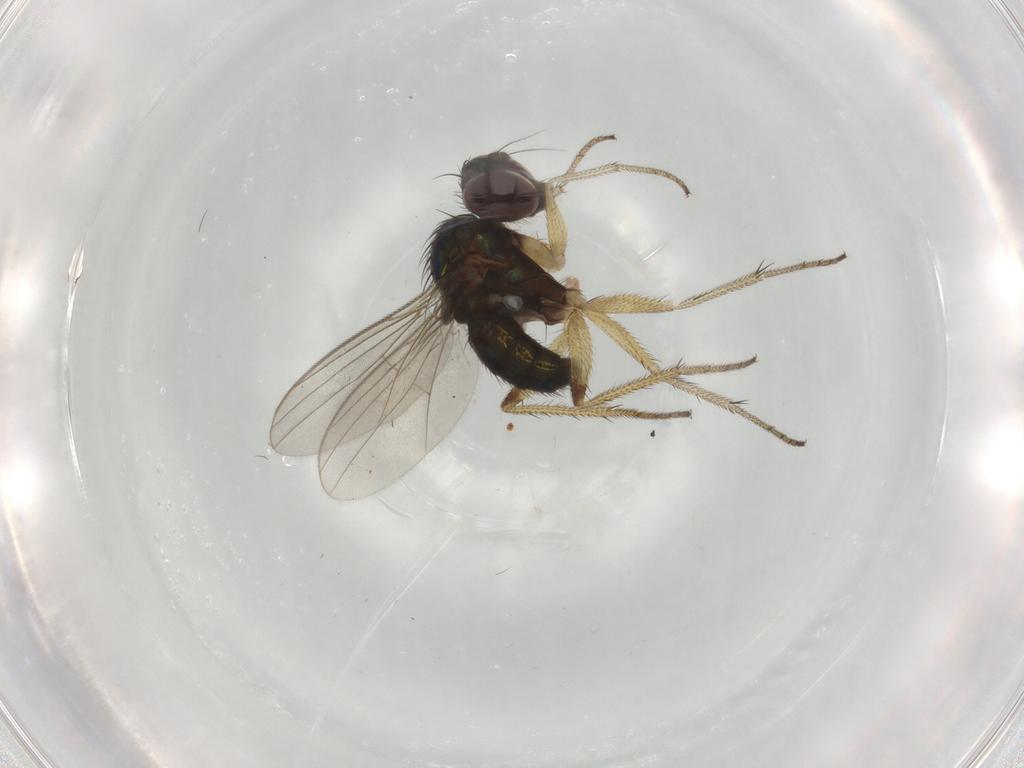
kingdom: Animalia
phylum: Arthropoda
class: Insecta
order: Diptera
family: Dolichopodidae
